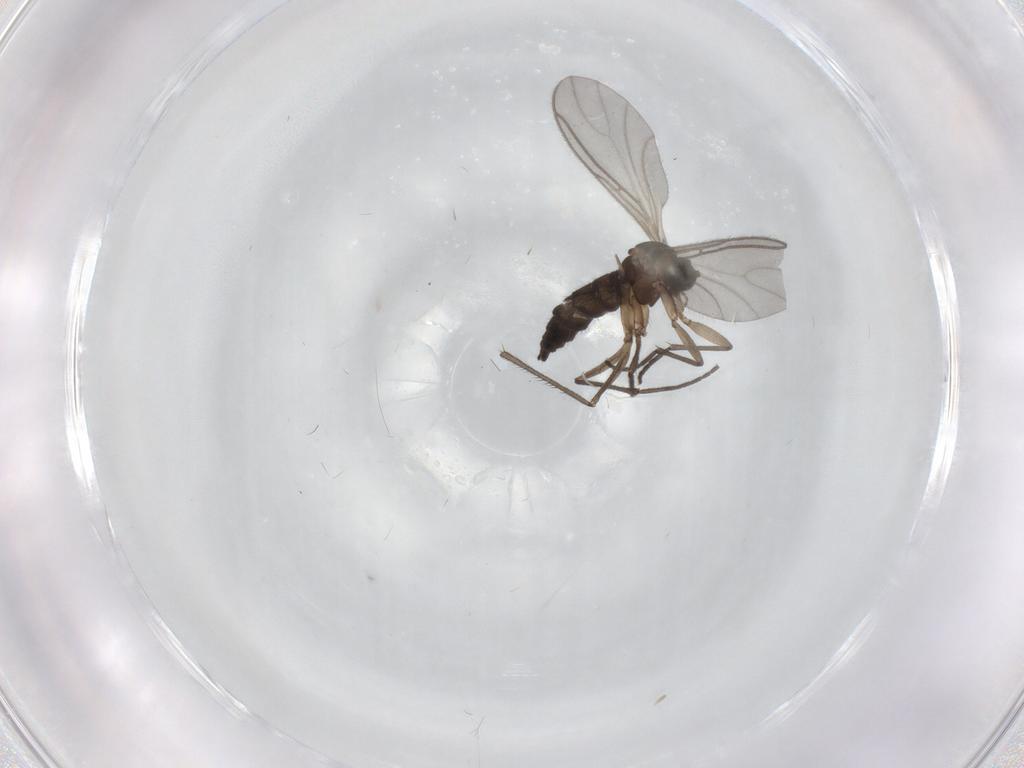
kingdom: Animalia
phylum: Arthropoda
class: Insecta
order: Diptera
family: Sciaridae
